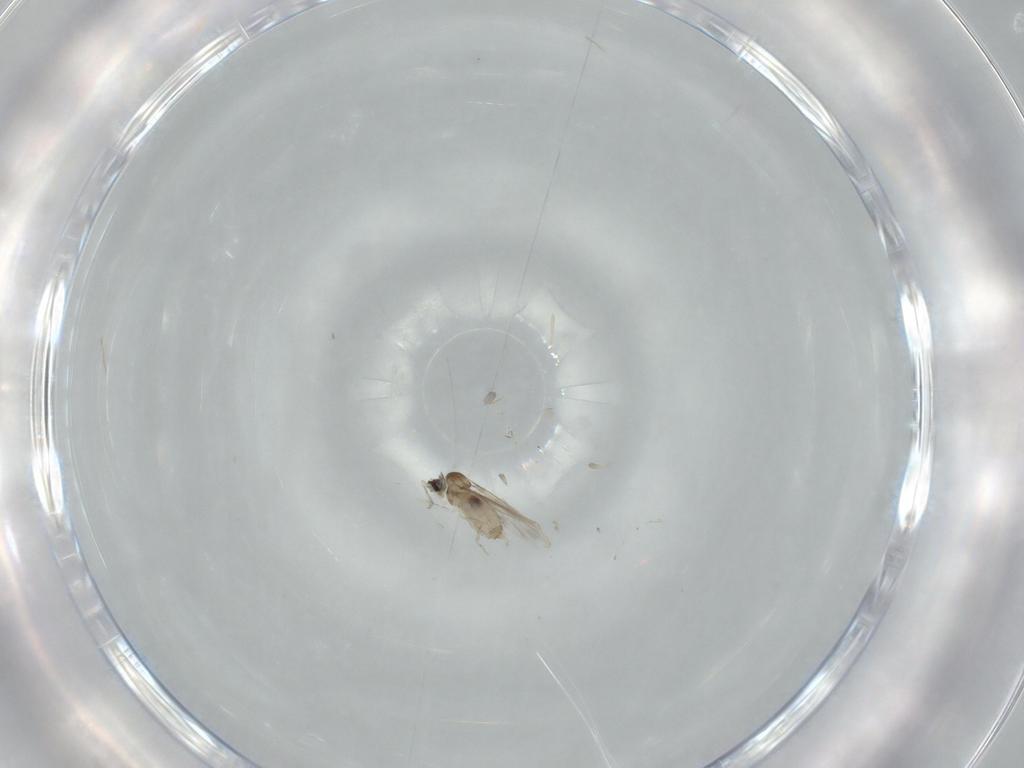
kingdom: Animalia
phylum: Arthropoda
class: Insecta
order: Diptera
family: Cecidomyiidae
